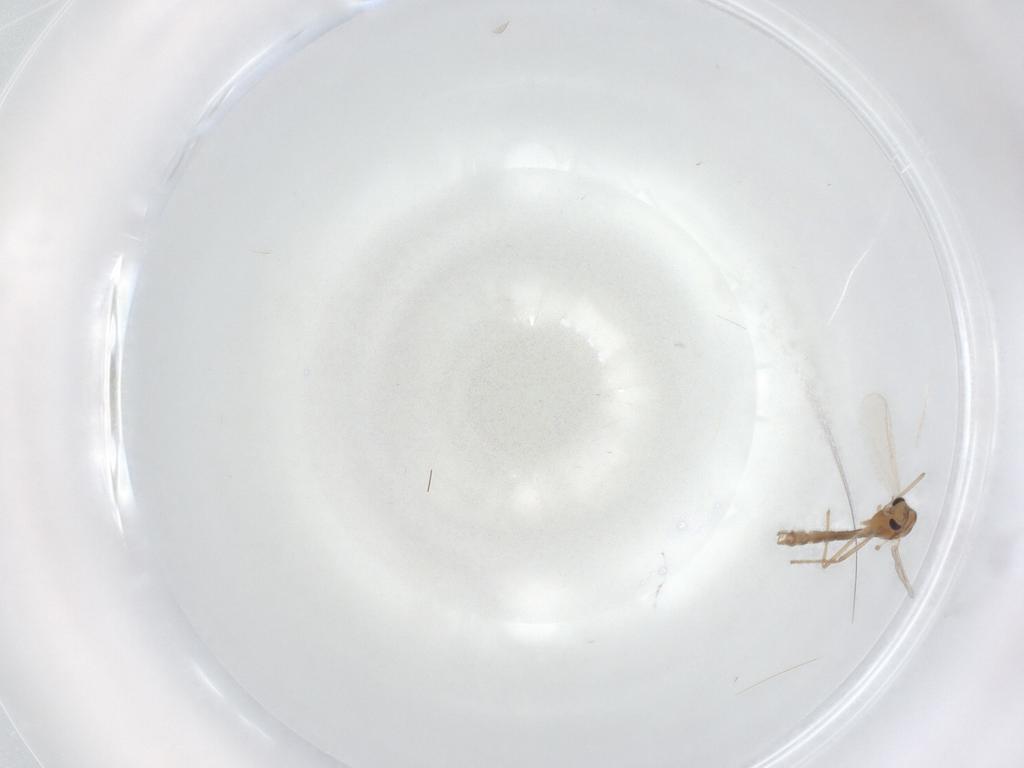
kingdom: Animalia
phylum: Arthropoda
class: Insecta
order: Diptera
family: Chironomidae
